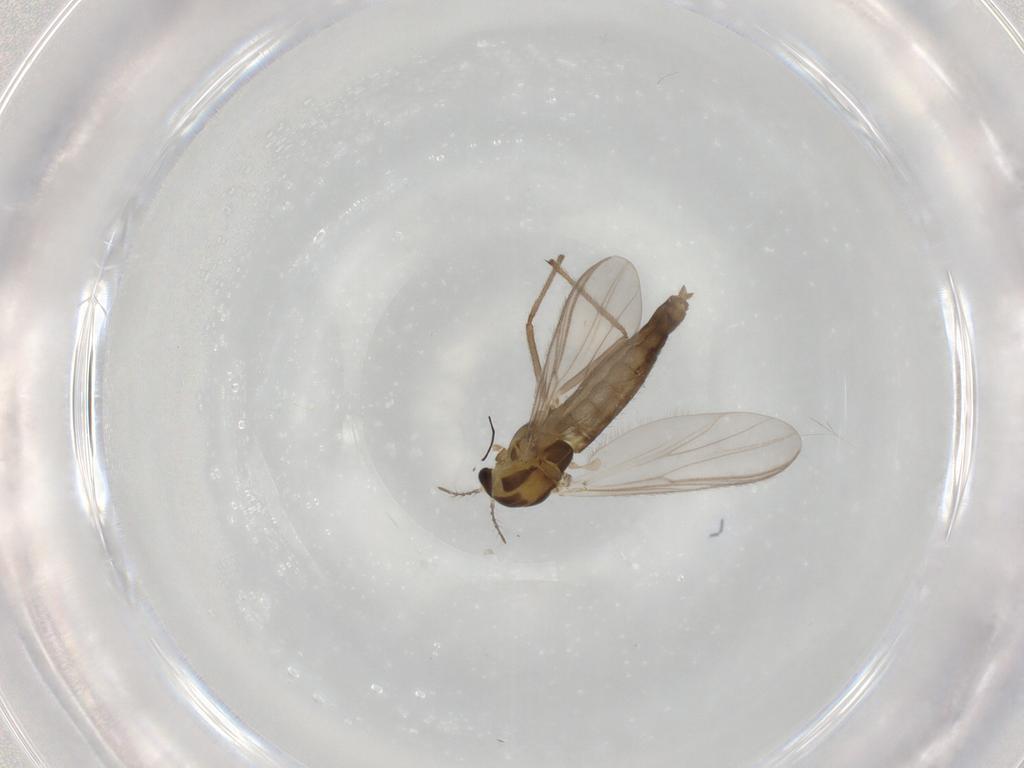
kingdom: Animalia
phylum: Arthropoda
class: Insecta
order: Diptera
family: Chironomidae
